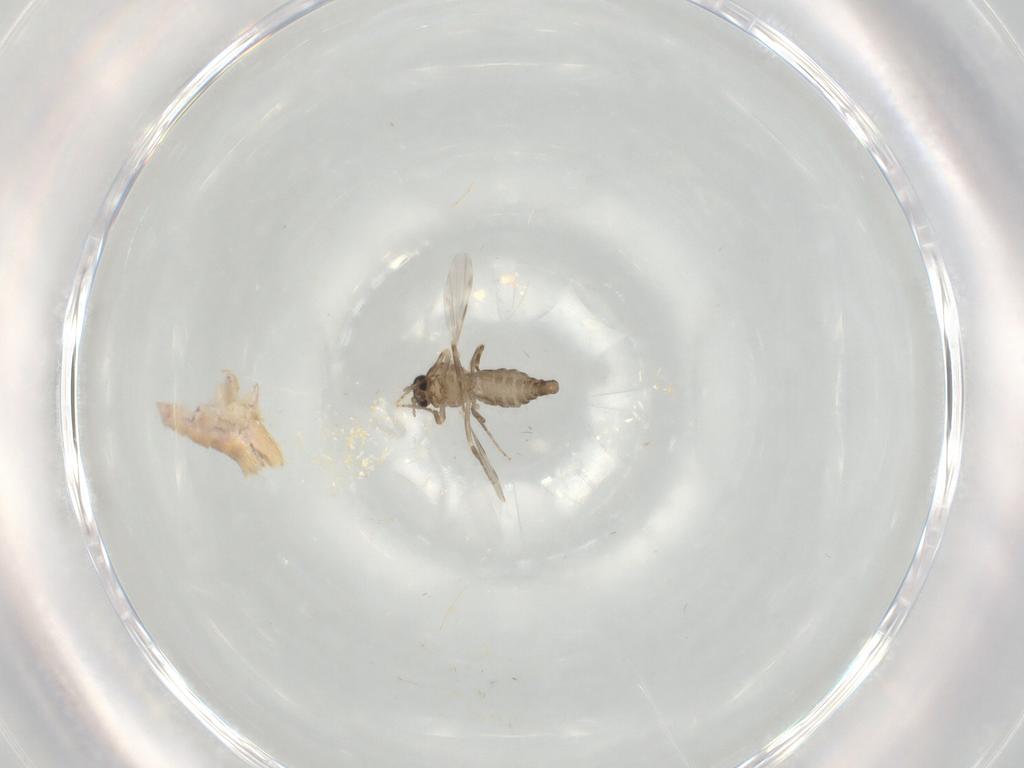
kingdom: Animalia
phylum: Arthropoda
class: Insecta
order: Diptera
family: Ceratopogonidae
